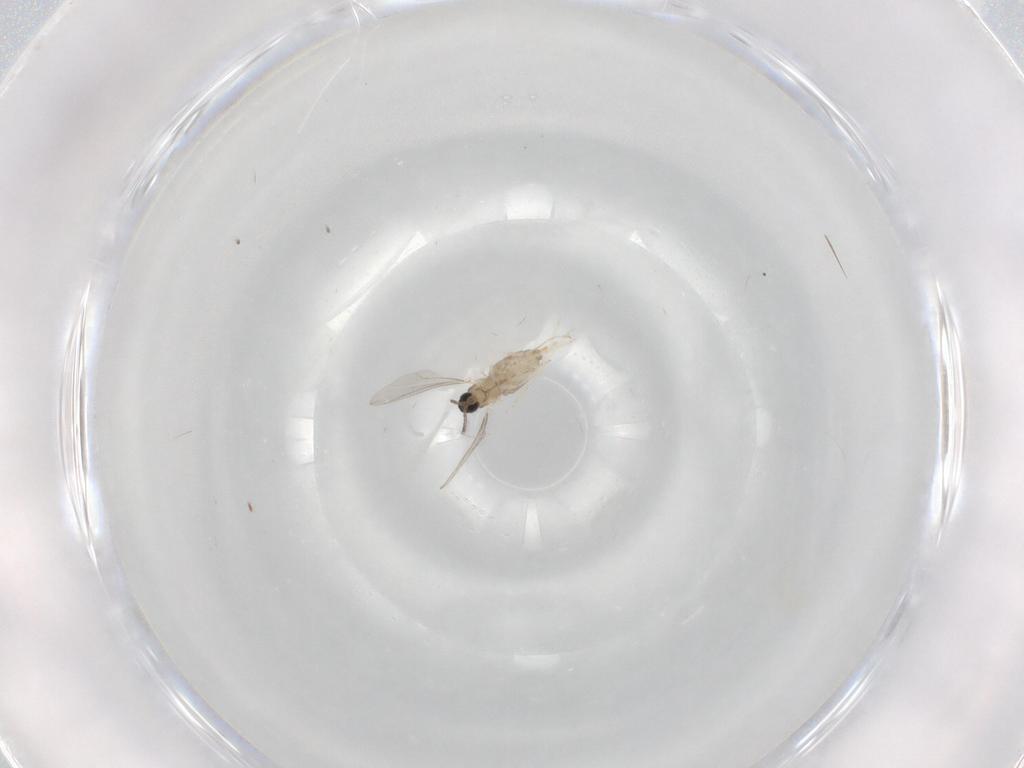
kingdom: Animalia
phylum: Arthropoda
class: Insecta
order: Diptera
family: Cecidomyiidae
